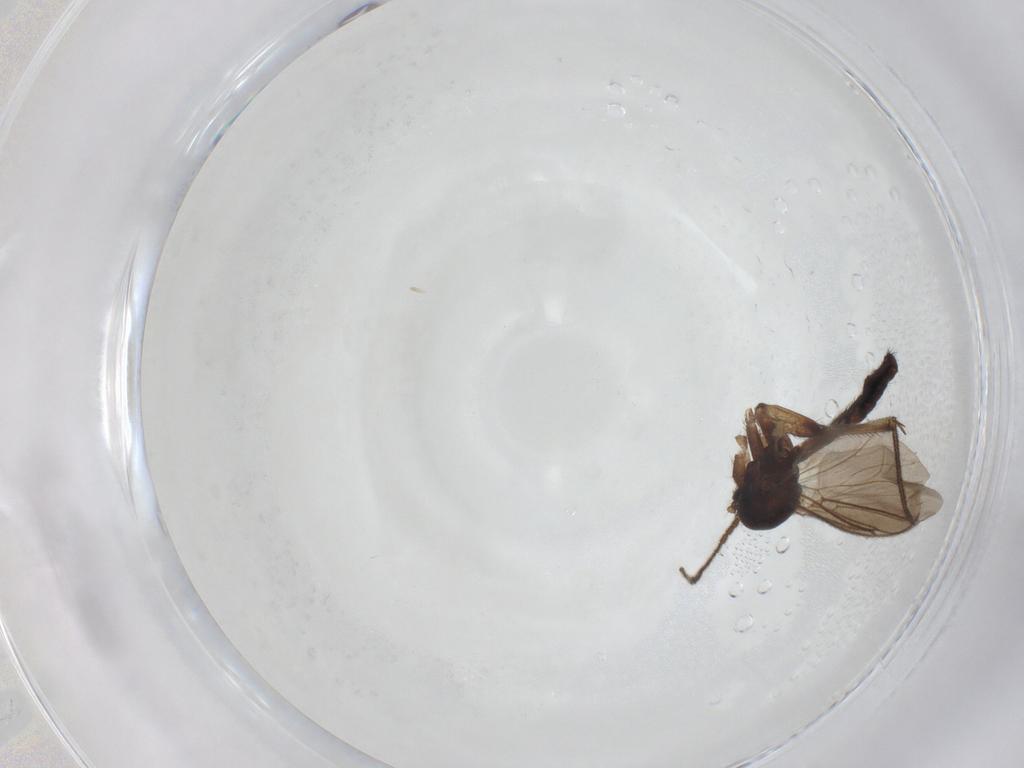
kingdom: Animalia
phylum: Arthropoda
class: Insecta
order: Diptera
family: Mycetophilidae
